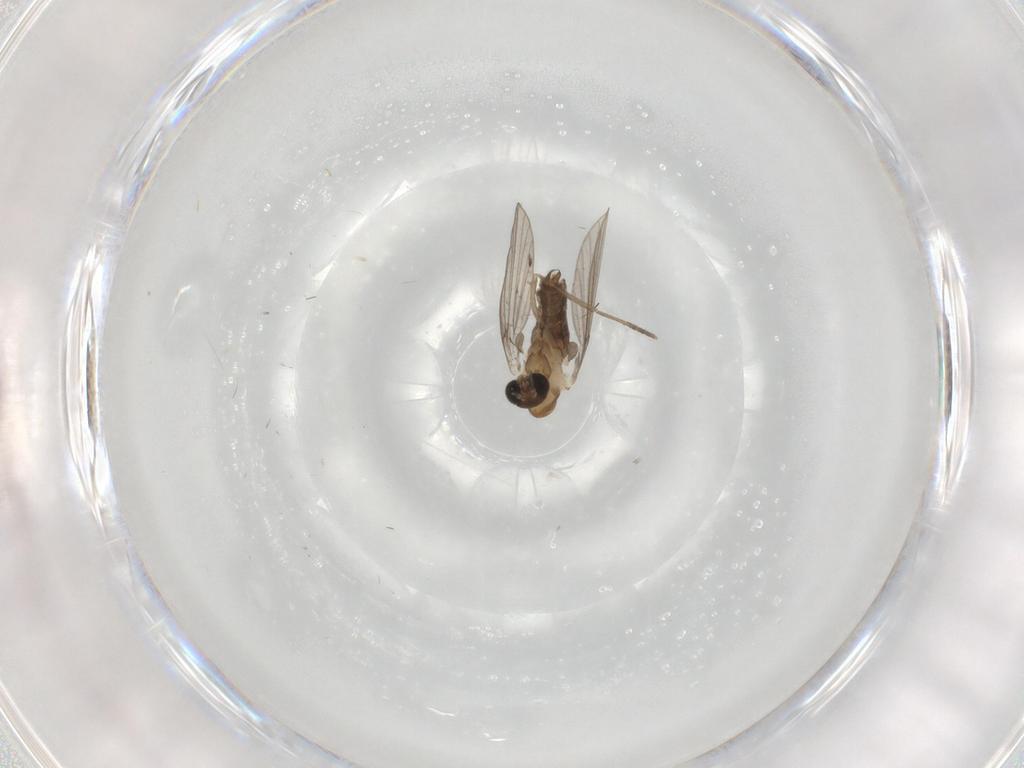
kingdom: Animalia
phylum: Arthropoda
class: Insecta
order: Diptera
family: Psychodidae
